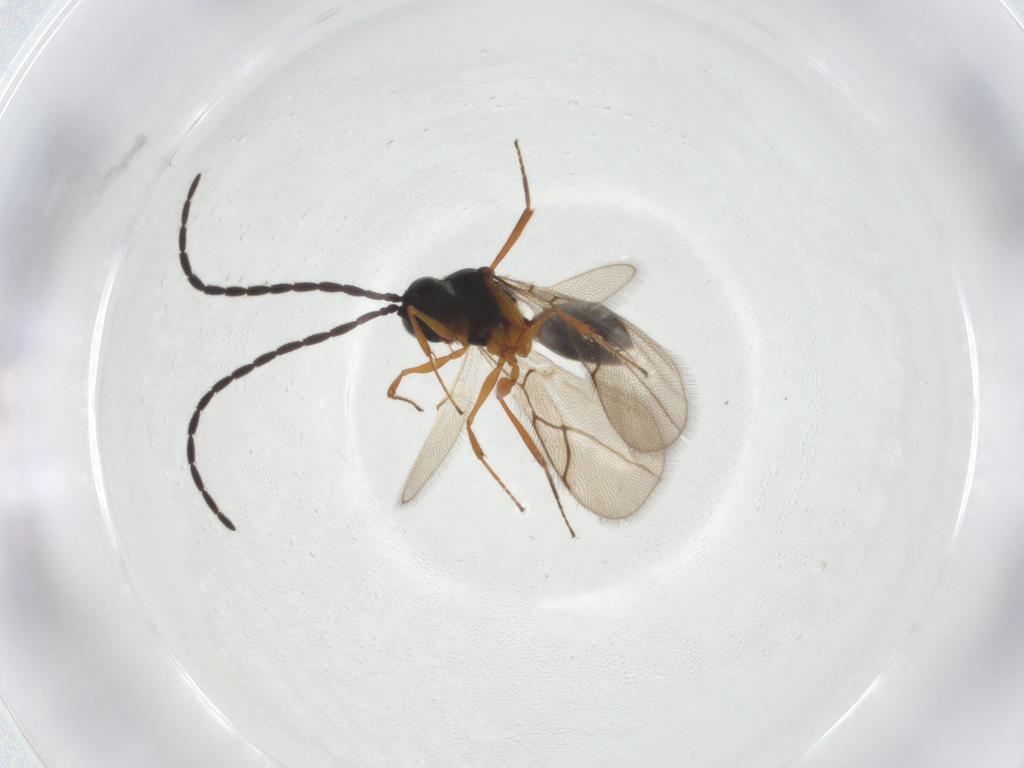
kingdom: Animalia
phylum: Arthropoda
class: Insecta
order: Hymenoptera
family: Figitidae
